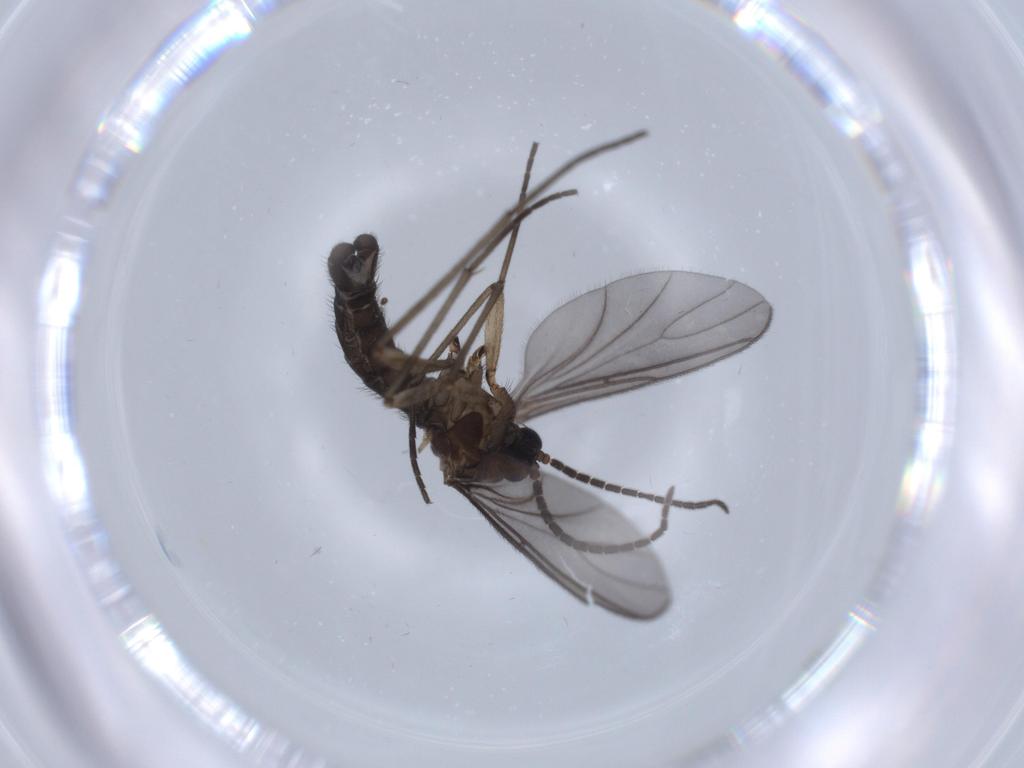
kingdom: Animalia
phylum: Arthropoda
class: Insecta
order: Diptera
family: Sciaridae
